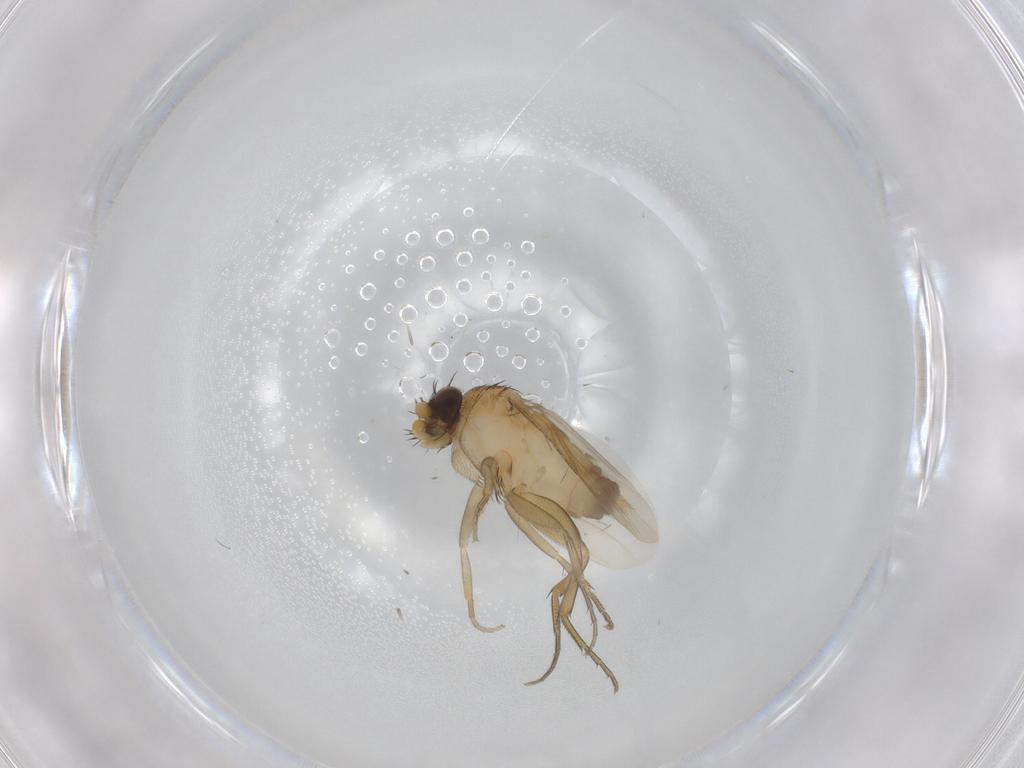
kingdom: Animalia
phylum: Arthropoda
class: Insecta
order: Diptera
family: Phoridae
